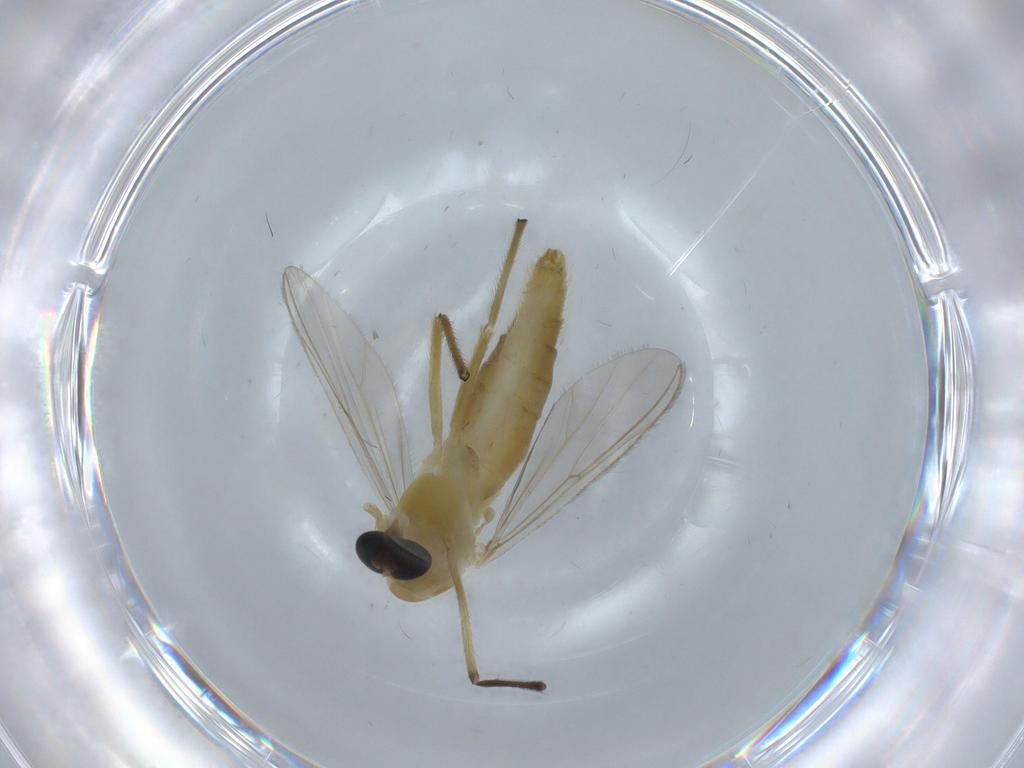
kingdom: Animalia
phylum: Arthropoda
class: Insecta
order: Diptera
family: Cecidomyiidae
